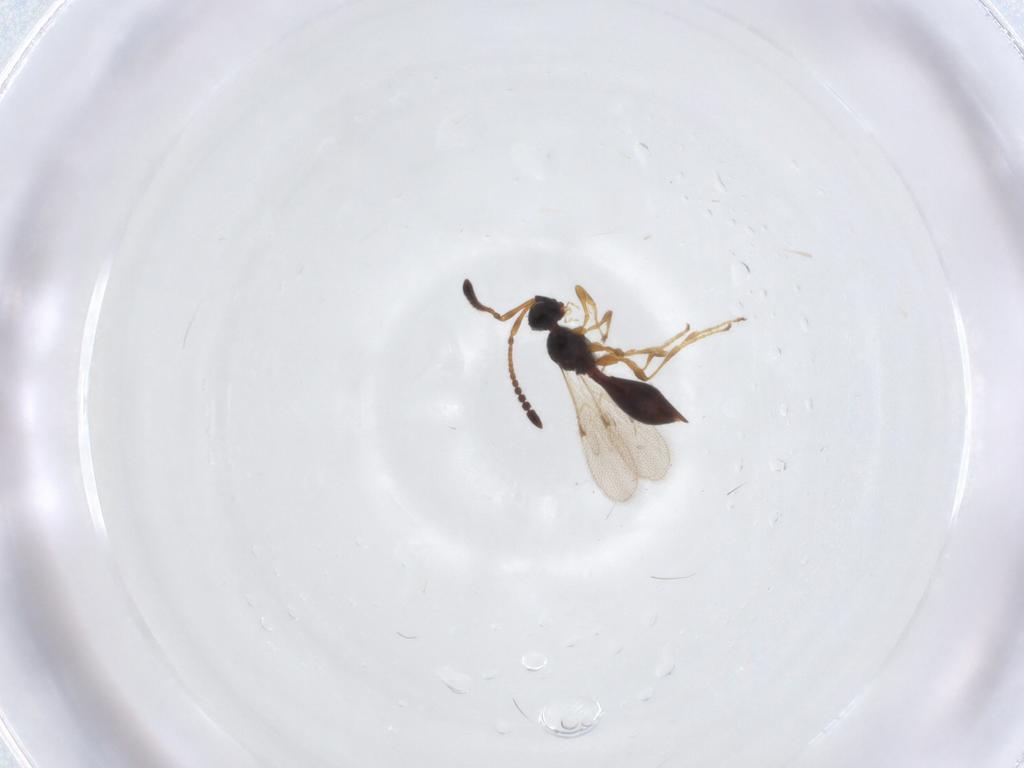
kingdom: Animalia
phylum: Arthropoda
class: Insecta
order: Hymenoptera
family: Diapriidae
